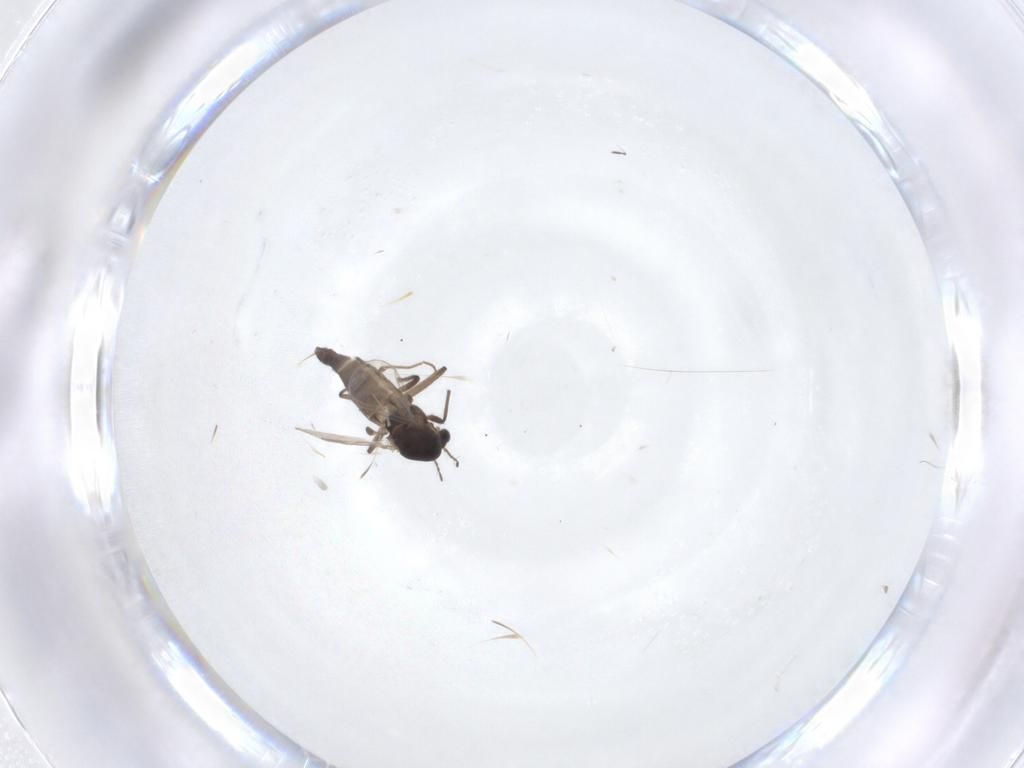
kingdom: Animalia
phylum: Arthropoda
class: Insecta
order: Diptera
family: Chironomidae
